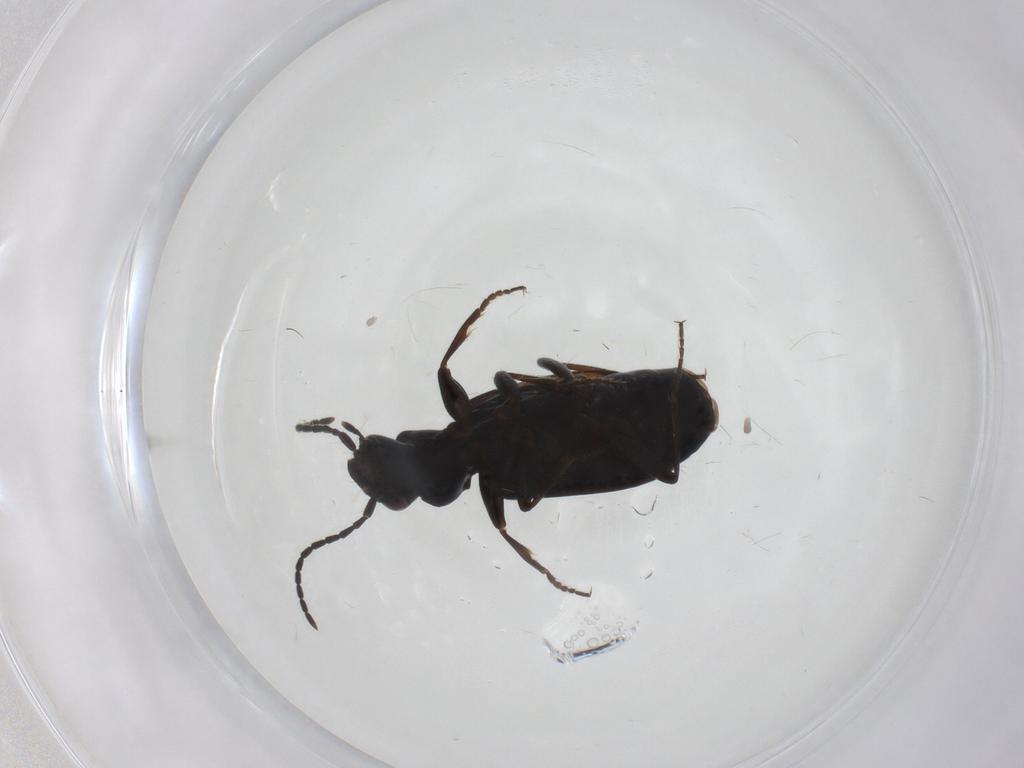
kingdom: Animalia
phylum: Arthropoda
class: Insecta
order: Coleoptera
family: Carabidae
